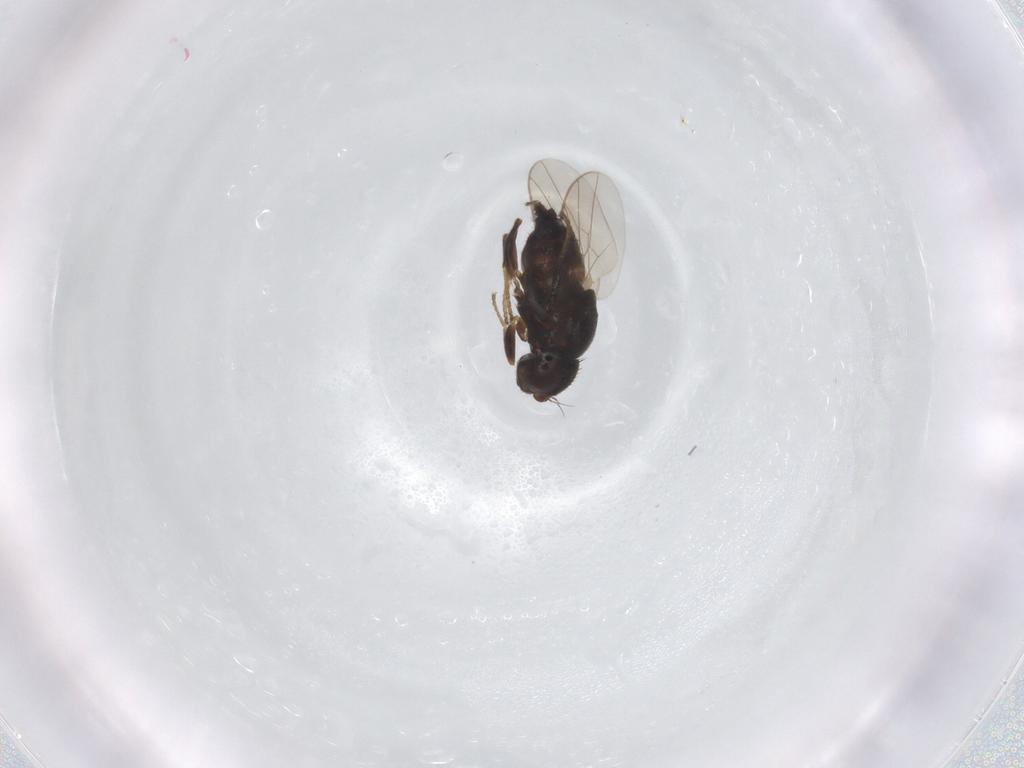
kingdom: Animalia
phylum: Arthropoda
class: Insecta
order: Diptera
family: Chloropidae
